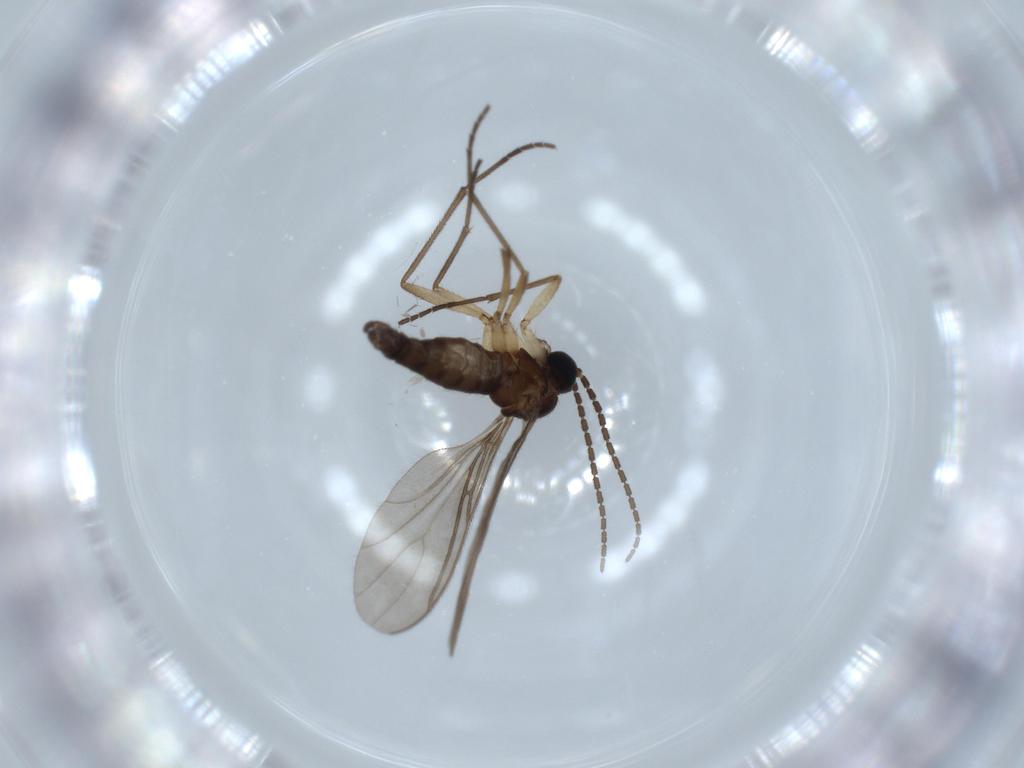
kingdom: Animalia
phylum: Arthropoda
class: Insecta
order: Diptera
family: Sciaridae
